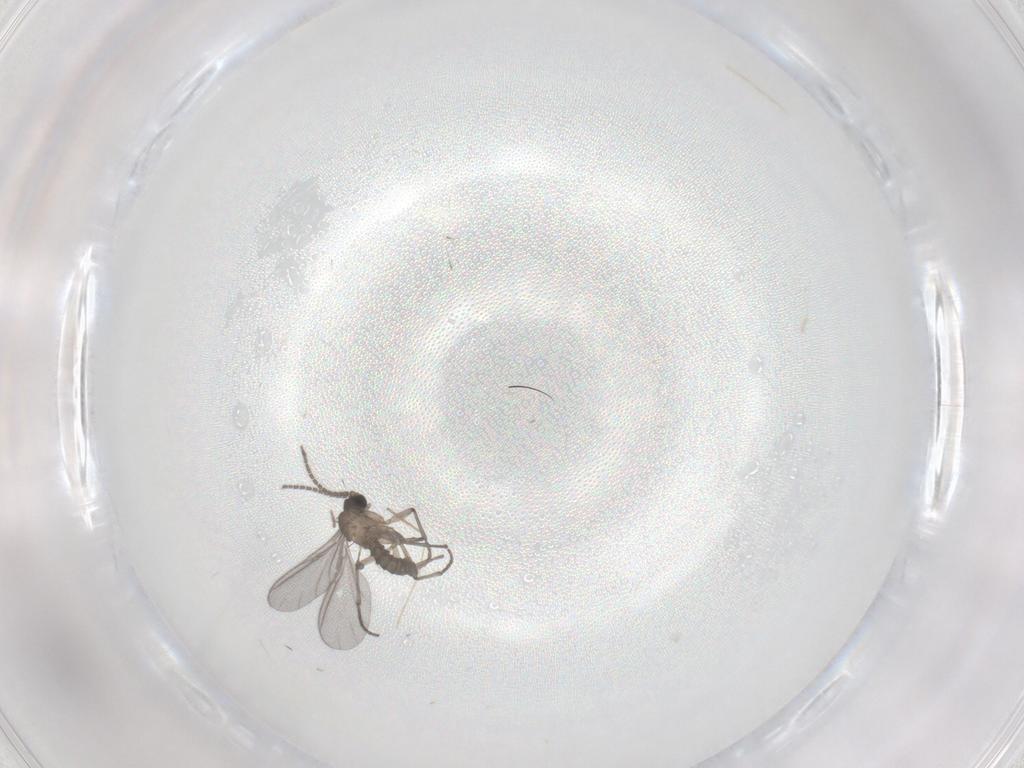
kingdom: Animalia
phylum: Arthropoda
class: Insecta
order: Diptera
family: Sciaridae
